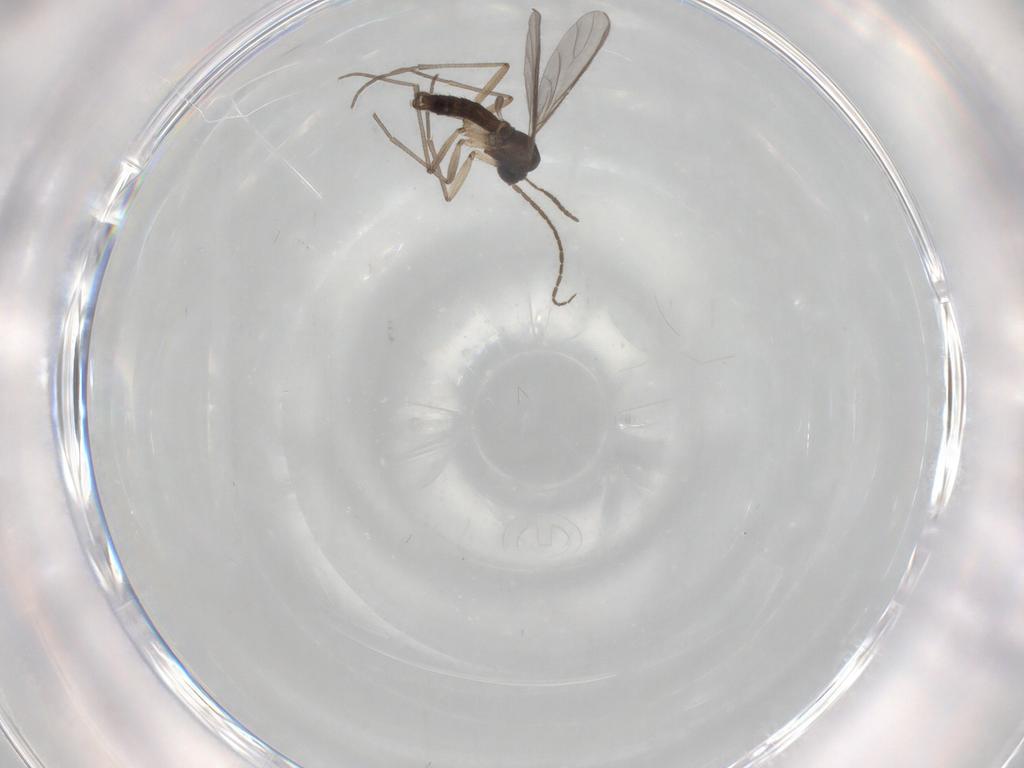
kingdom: Animalia
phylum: Arthropoda
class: Insecta
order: Diptera
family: Sciaridae
